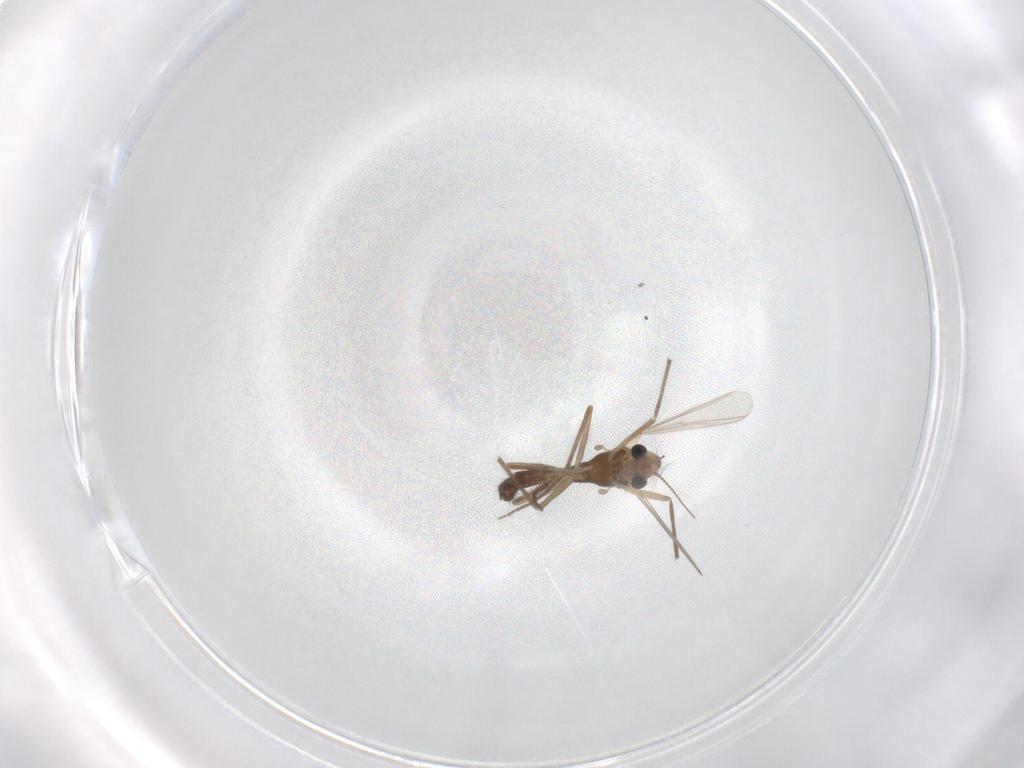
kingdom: Animalia
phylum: Arthropoda
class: Insecta
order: Diptera
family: Chironomidae
